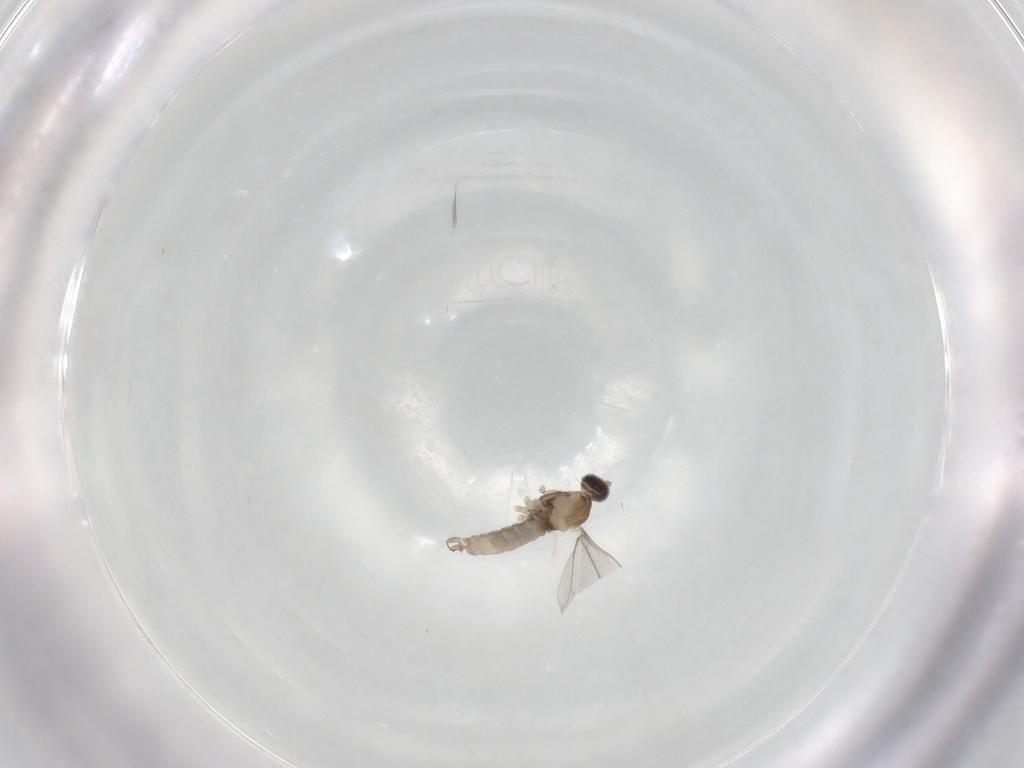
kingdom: Animalia
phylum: Arthropoda
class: Insecta
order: Diptera
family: Cecidomyiidae
